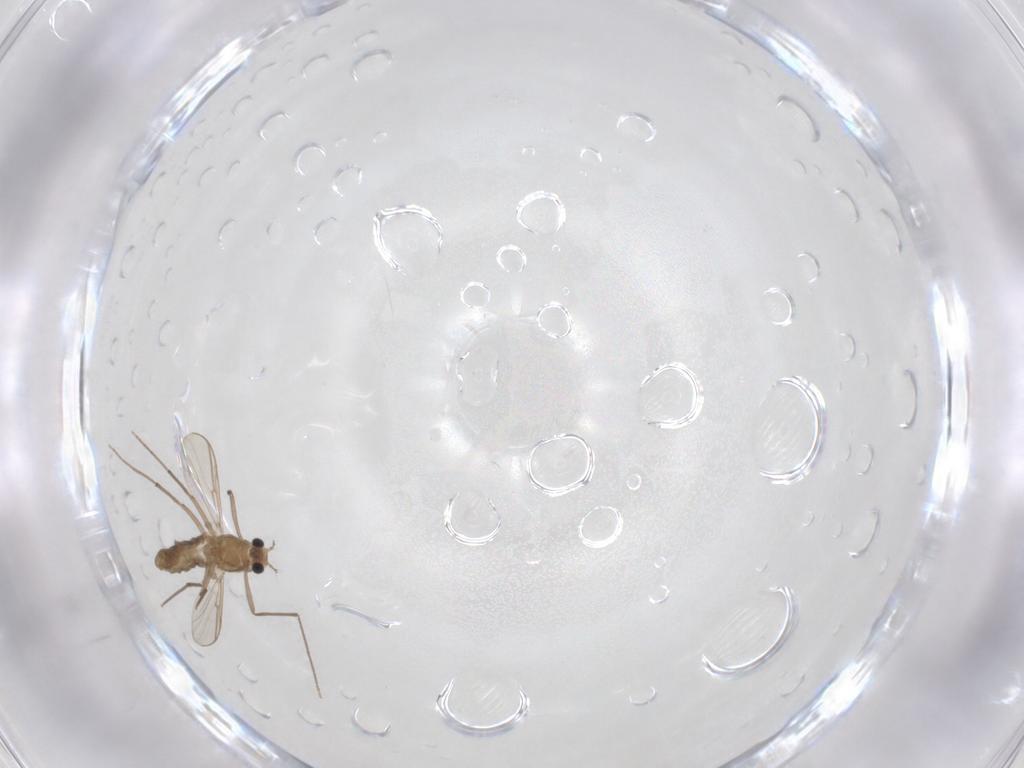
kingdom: Animalia
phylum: Arthropoda
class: Insecta
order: Diptera
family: Chironomidae
